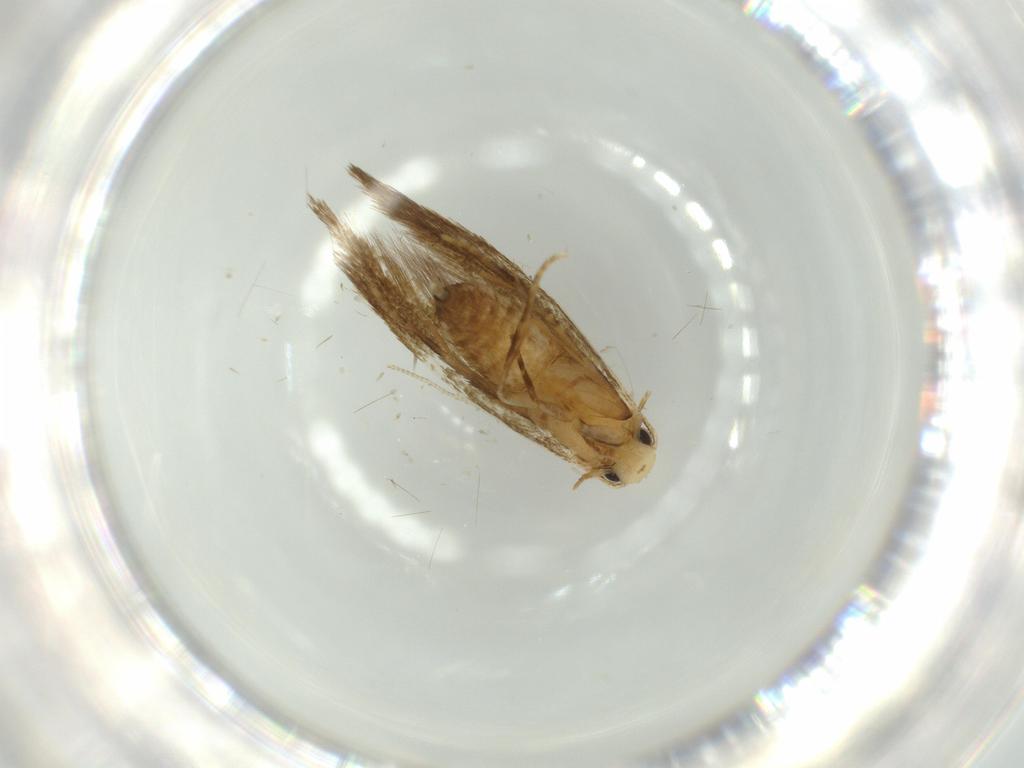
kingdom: Animalia
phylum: Arthropoda
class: Insecta
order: Lepidoptera
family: Tineidae
